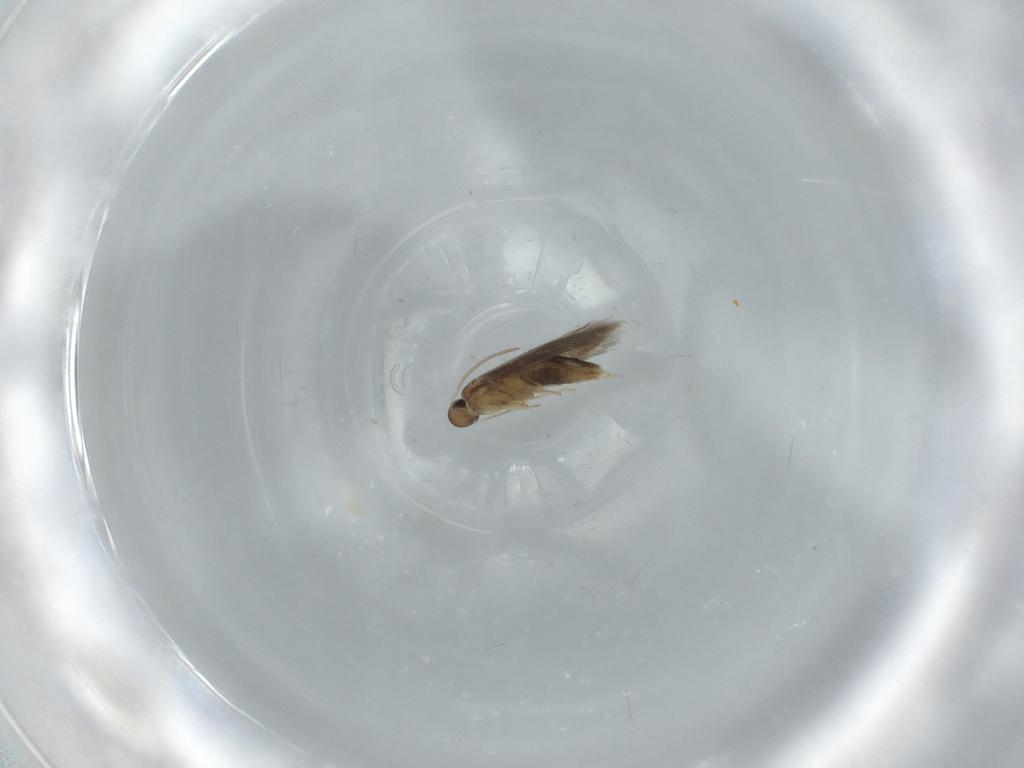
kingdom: Animalia
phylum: Arthropoda
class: Insecta
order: Lepidoptera
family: Heliozelidae
